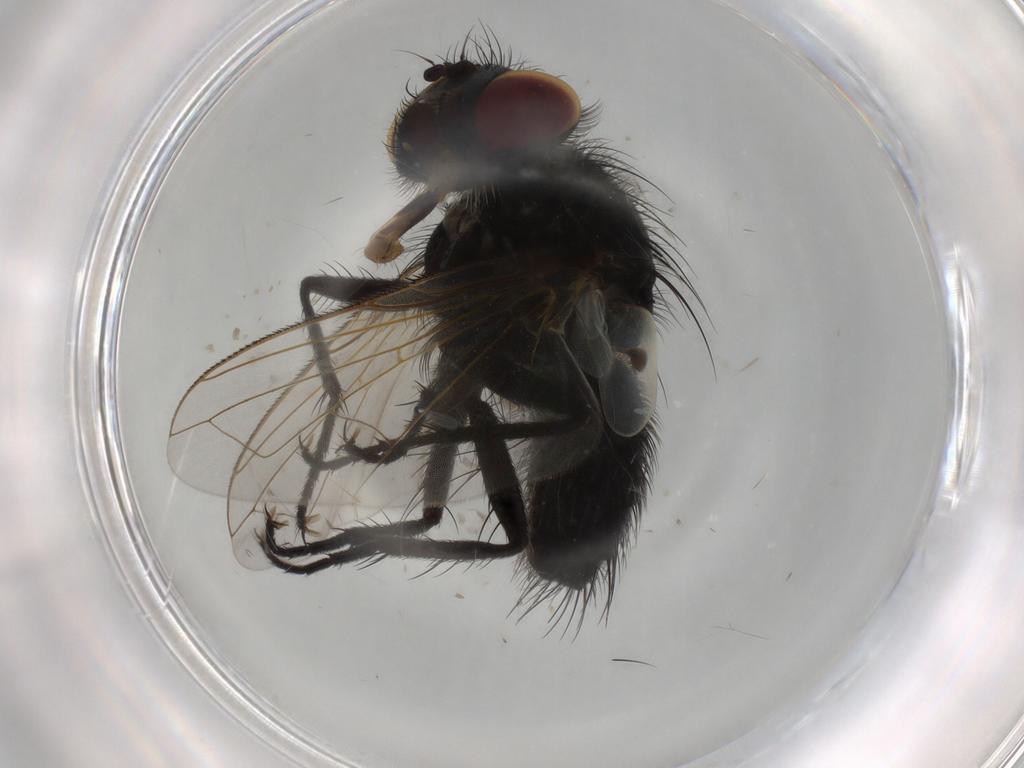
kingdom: Animalia
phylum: Arthropoda
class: Insecta
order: Diptera
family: Tachinidae
